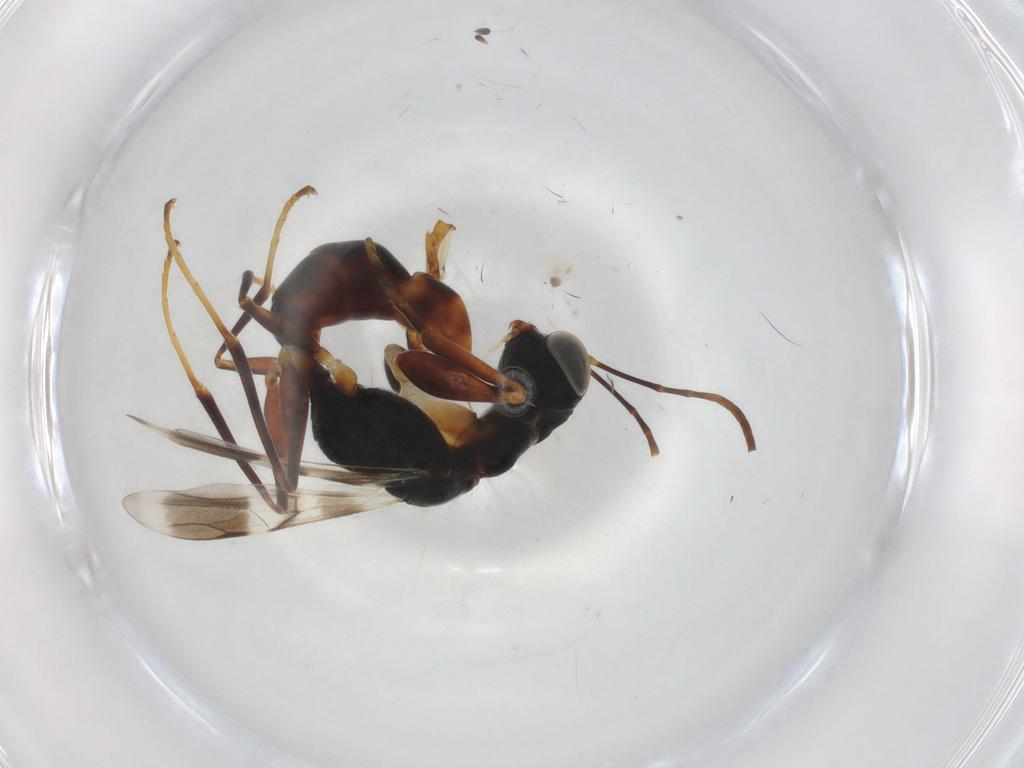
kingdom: Animalia
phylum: Arthropoda
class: Insecta
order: Hymenoptera
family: Dryinidae
